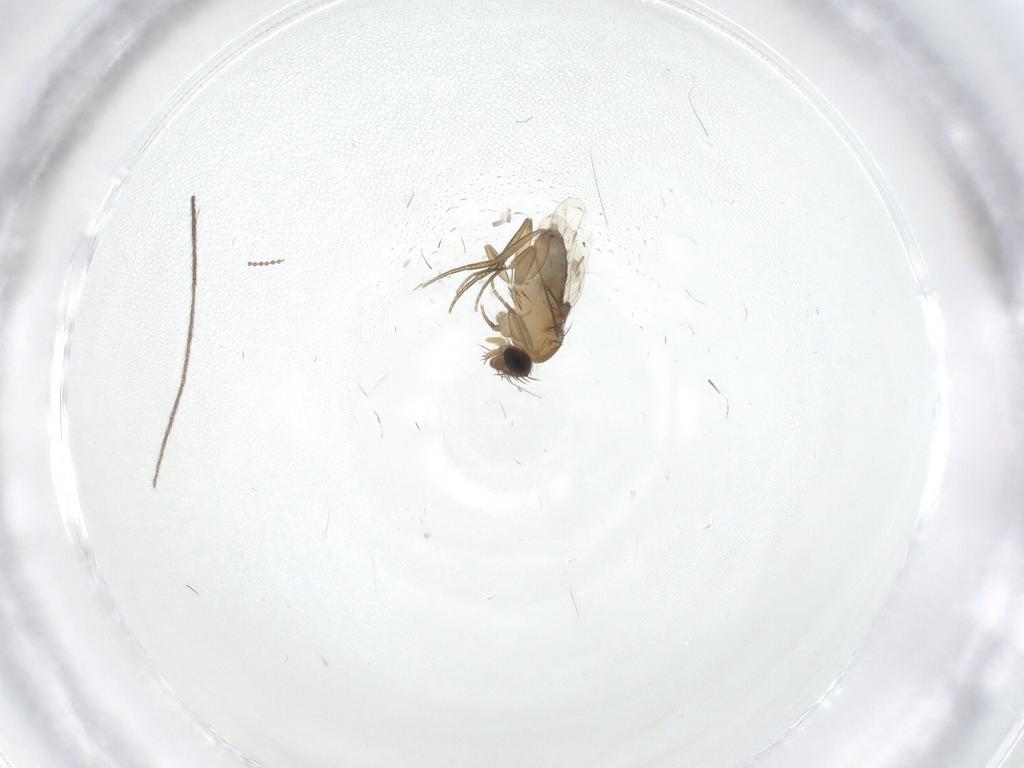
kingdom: Animalia
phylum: Arthropoda
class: Insecta
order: Diptera
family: Keroplatidae
